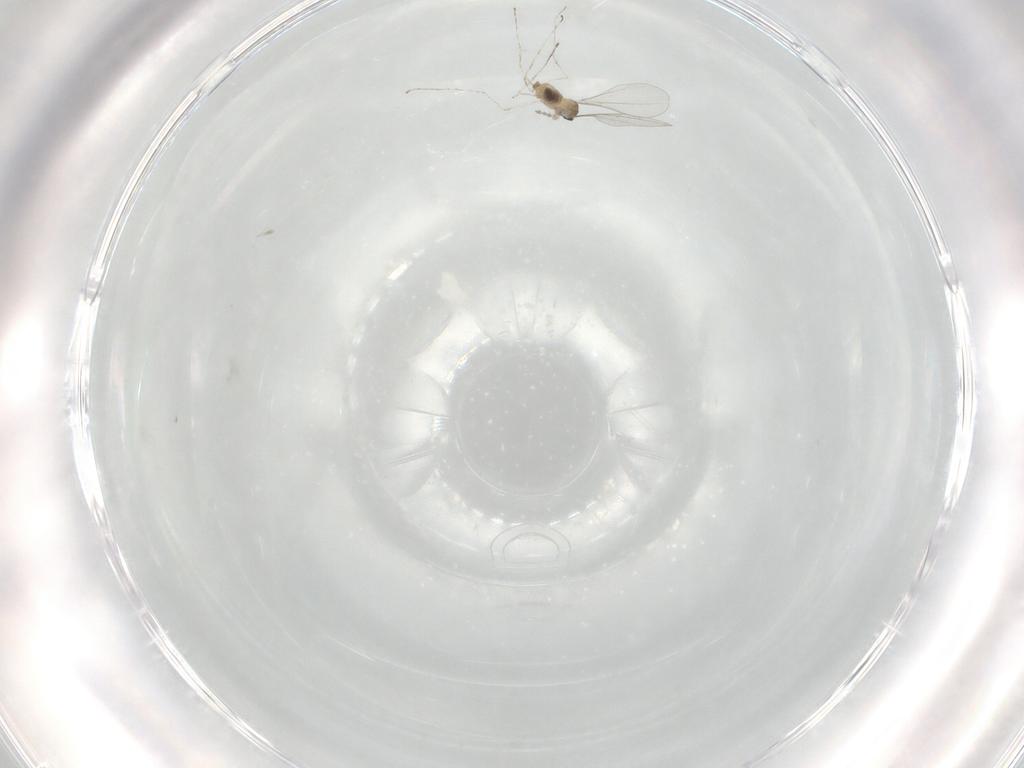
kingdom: Animalia
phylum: Arthropoda
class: Insecta
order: Diptera
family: Cecidomyiidae
